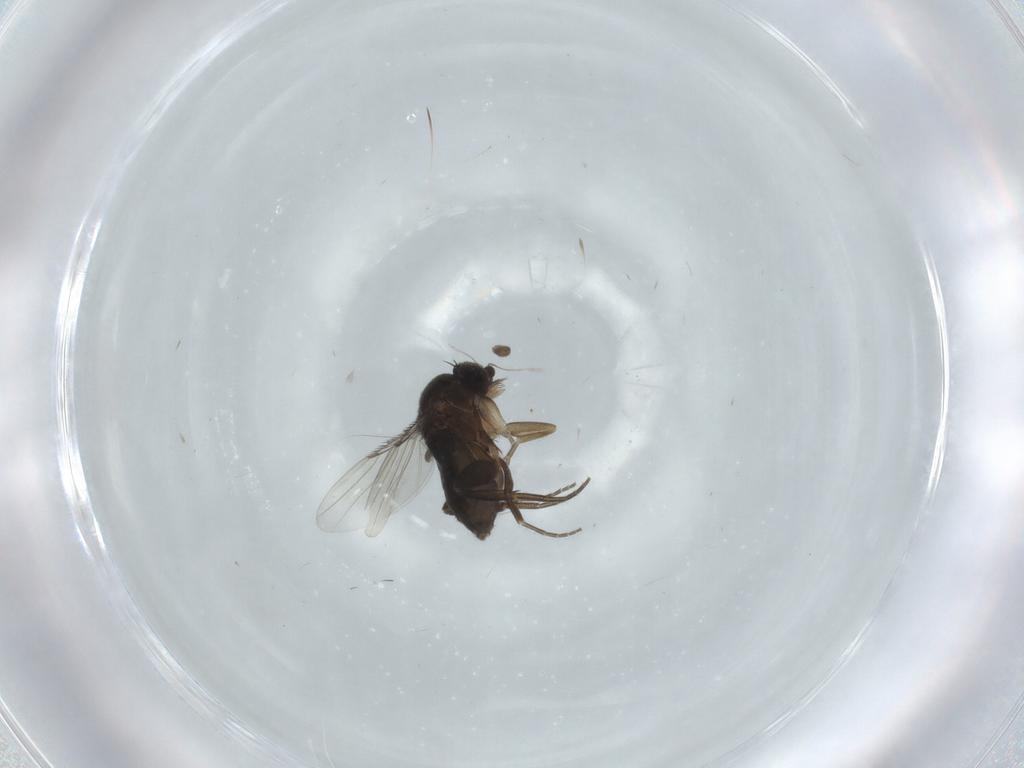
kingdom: Animalia
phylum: Arthropoda
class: Insecta
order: Diptera
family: Phoridae
